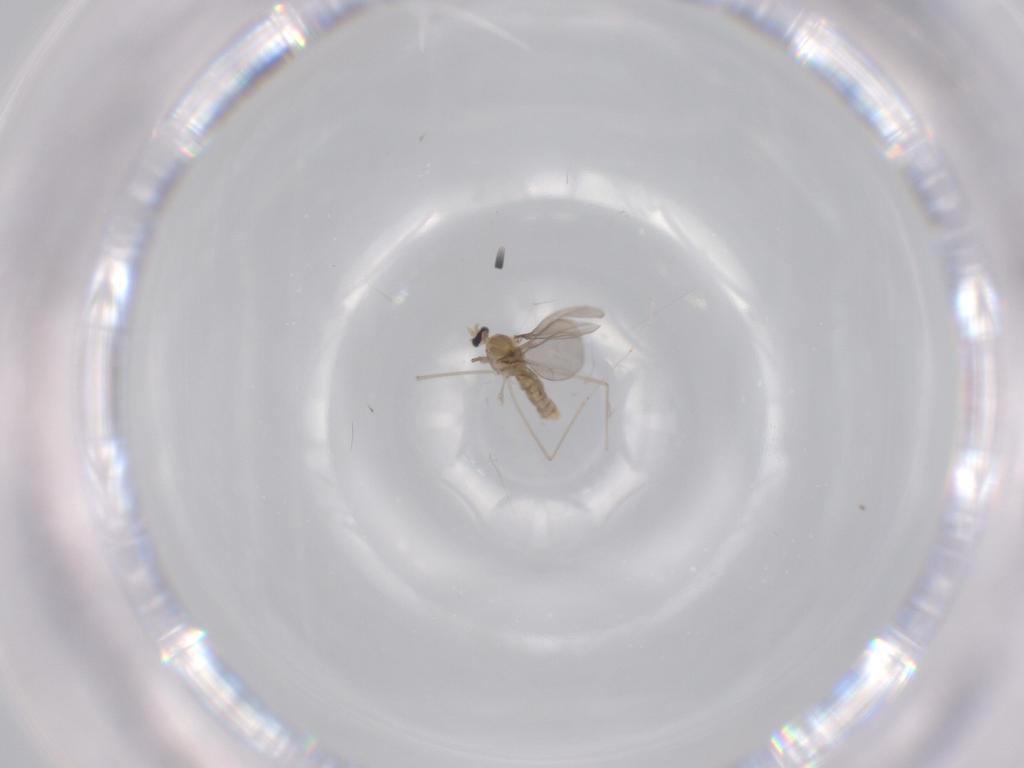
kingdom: Animalia
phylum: Arthropoda
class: Insecta
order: Diptera
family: Cecidomyiidae
